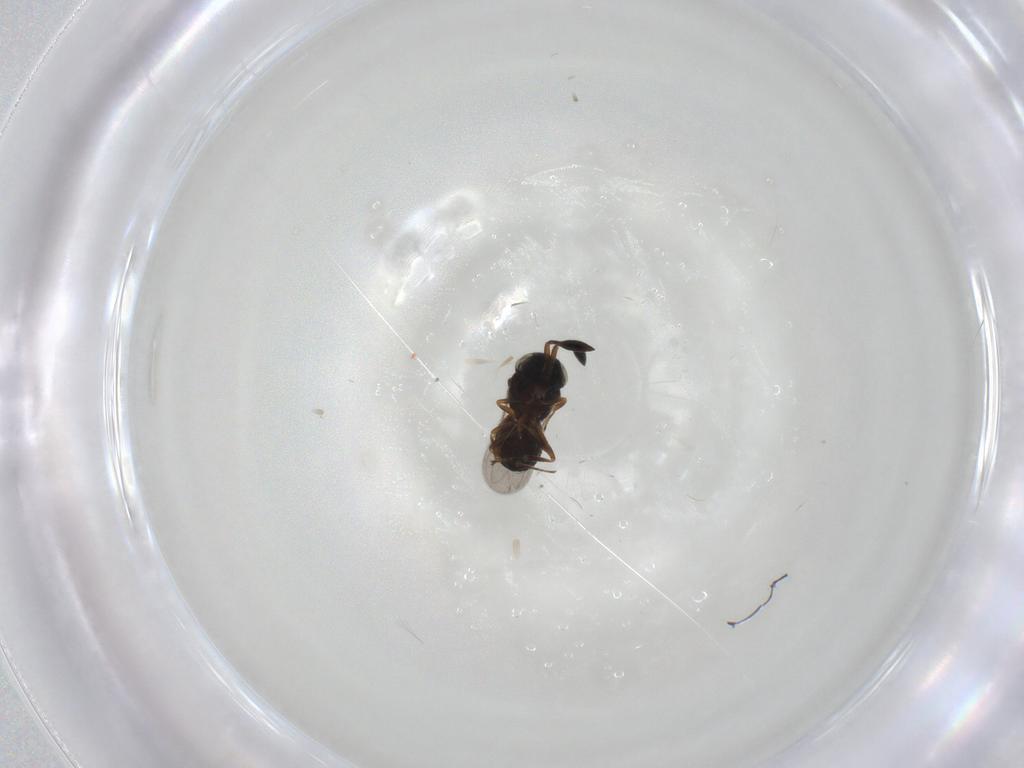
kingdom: Animalia
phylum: Arthropoda
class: Insecta
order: Hymenoptera
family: Scelionidae
